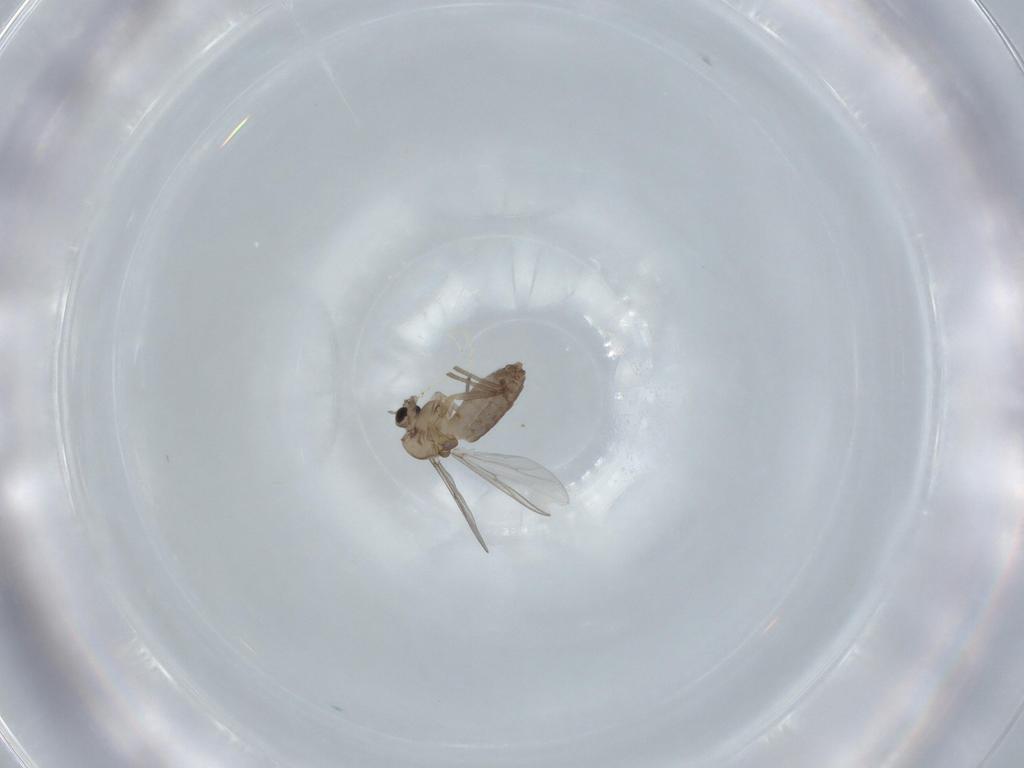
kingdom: Animalia
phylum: Arthropoda
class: Insecta
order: Diptera
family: Chironomidae
